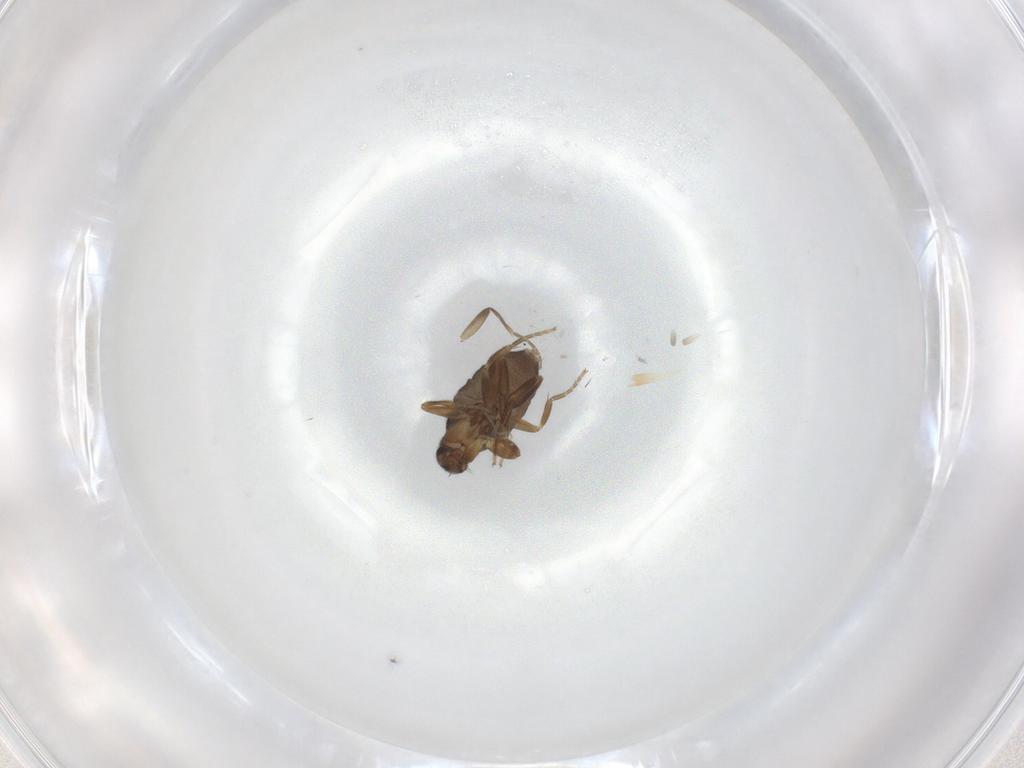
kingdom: Animalia
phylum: Arthropoda
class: Insecta
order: Diptera
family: Phoridae
